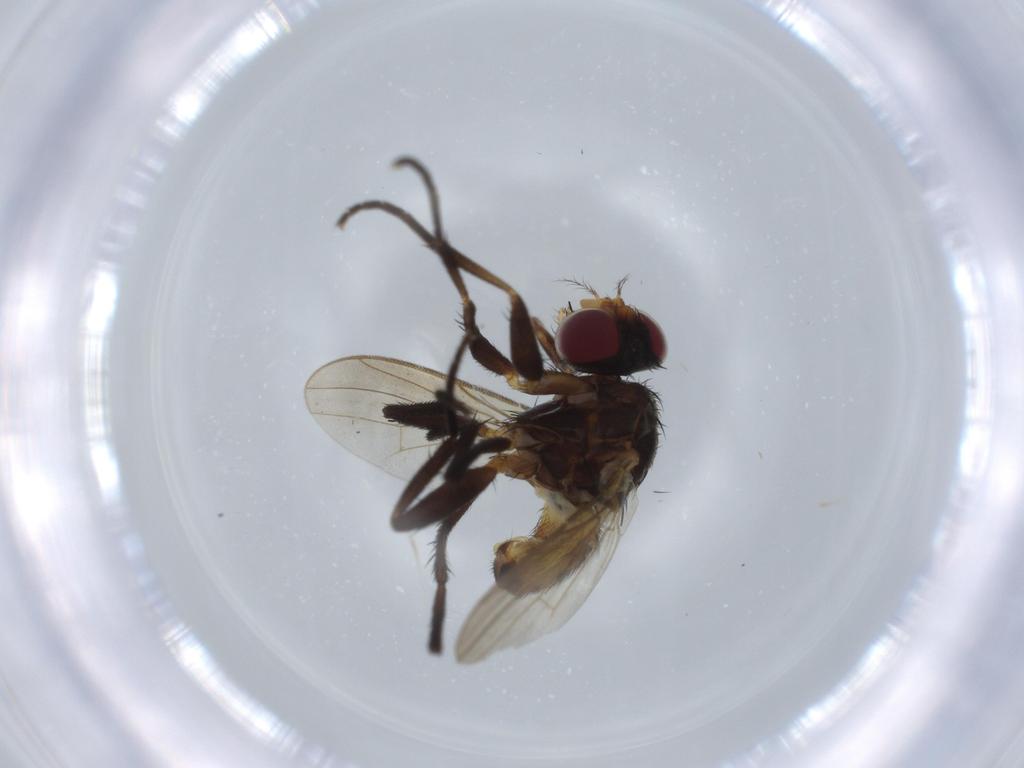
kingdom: Animalia
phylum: Arthropoda
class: Insecta
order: Diptera
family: Anthomyiidae
